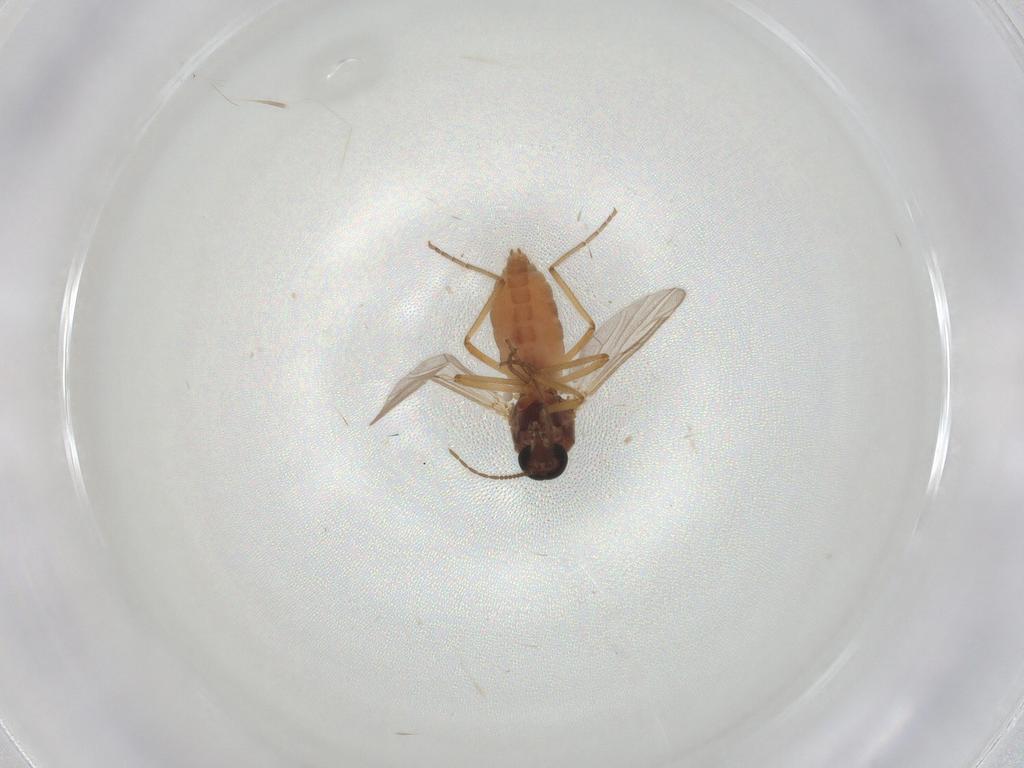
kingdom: Animalia
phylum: Arthropoda
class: Insecta
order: Diptera
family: Ceratopogonidae
